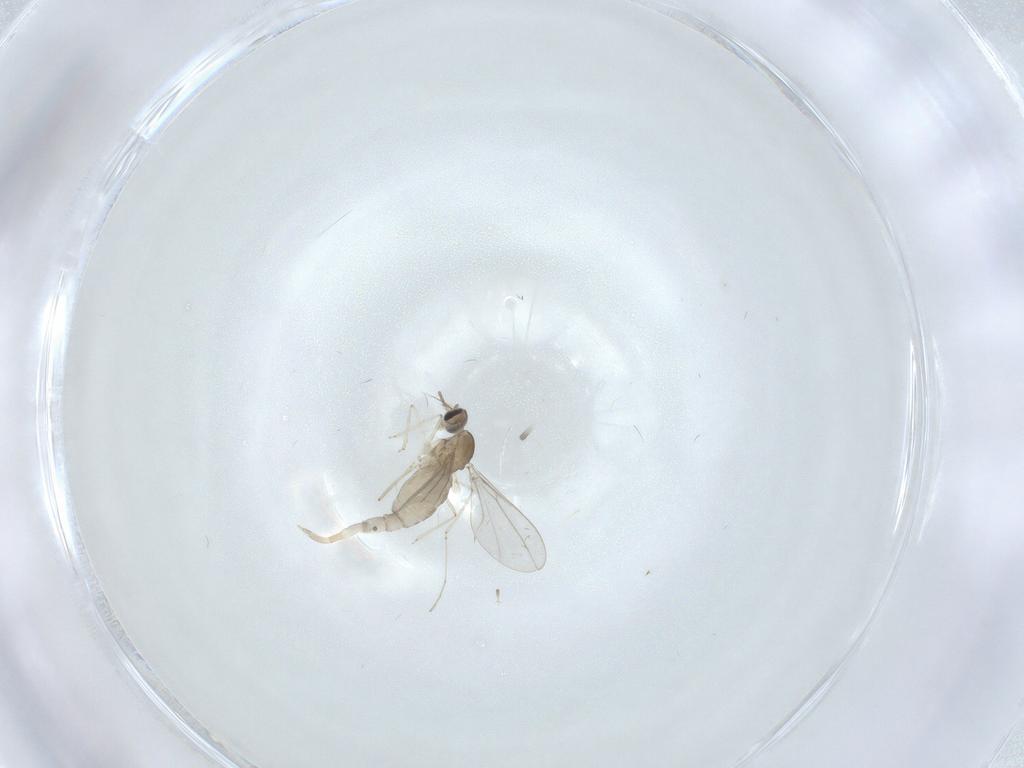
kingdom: Animalia
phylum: Arthropoda
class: Insecta
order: Diptera
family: Cecidomyiidae
